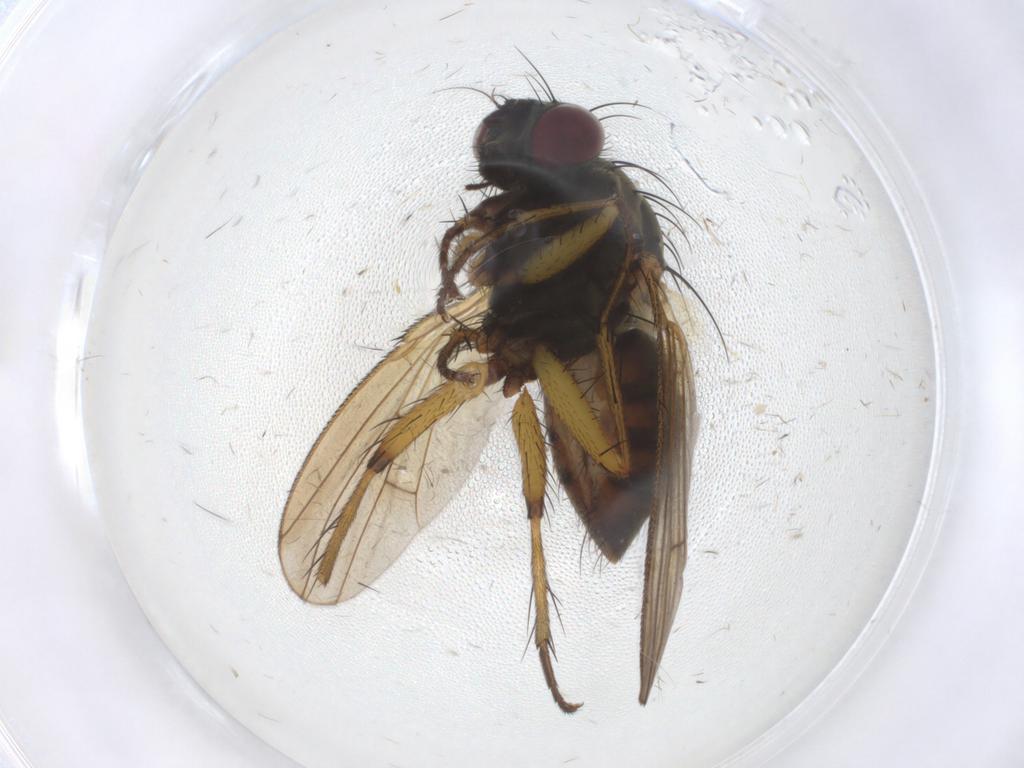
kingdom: Animalia
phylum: Arthropoda
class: Insecta
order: Diptera
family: Muscidae
